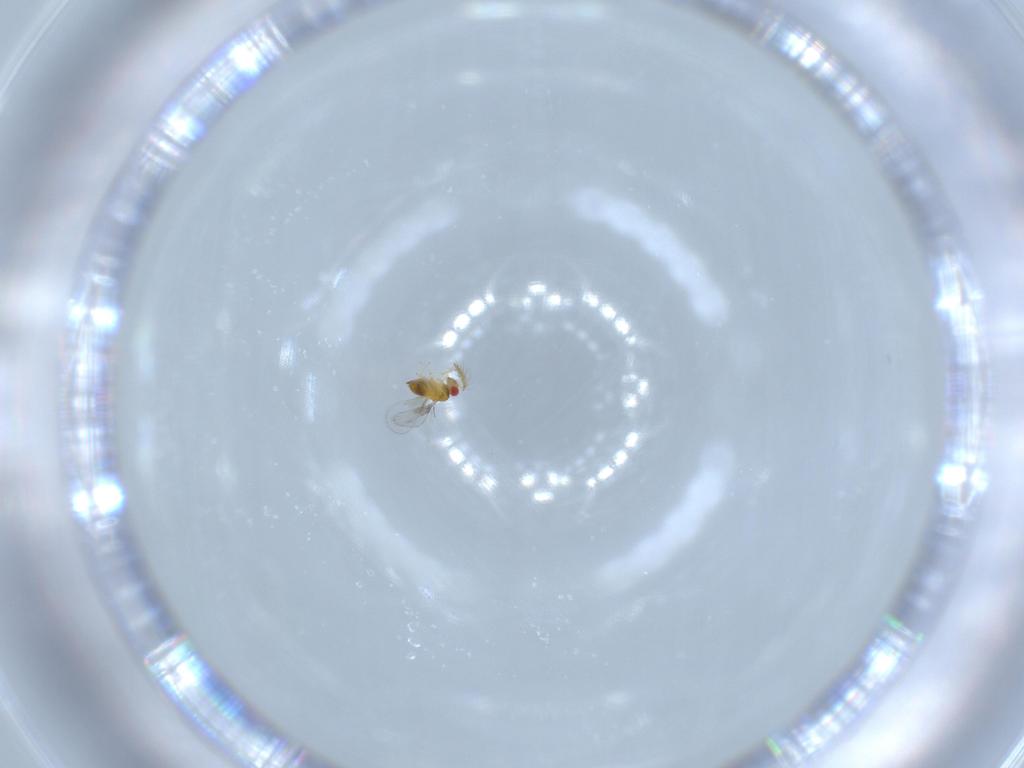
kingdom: Animalia
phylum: Arthropoda
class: Insecta
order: Hymenoptera
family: Trichogrammatidae
